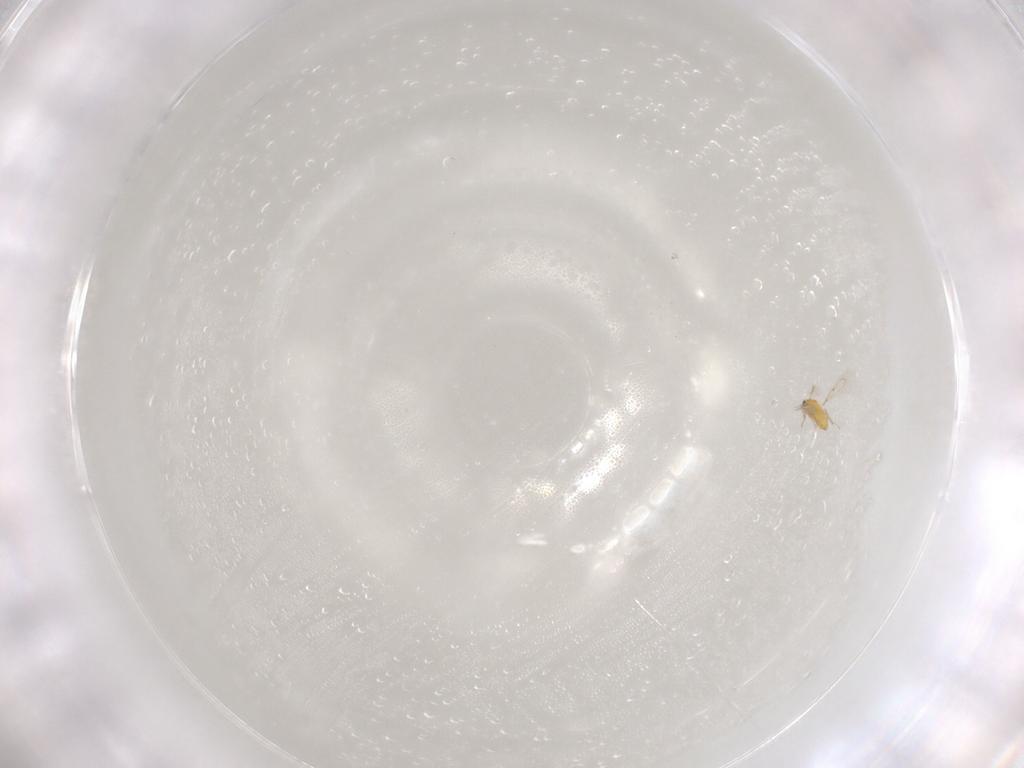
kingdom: Animalia
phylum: Arthropoda
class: Insecta
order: Hymenoptera
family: Trichogrammatidae
